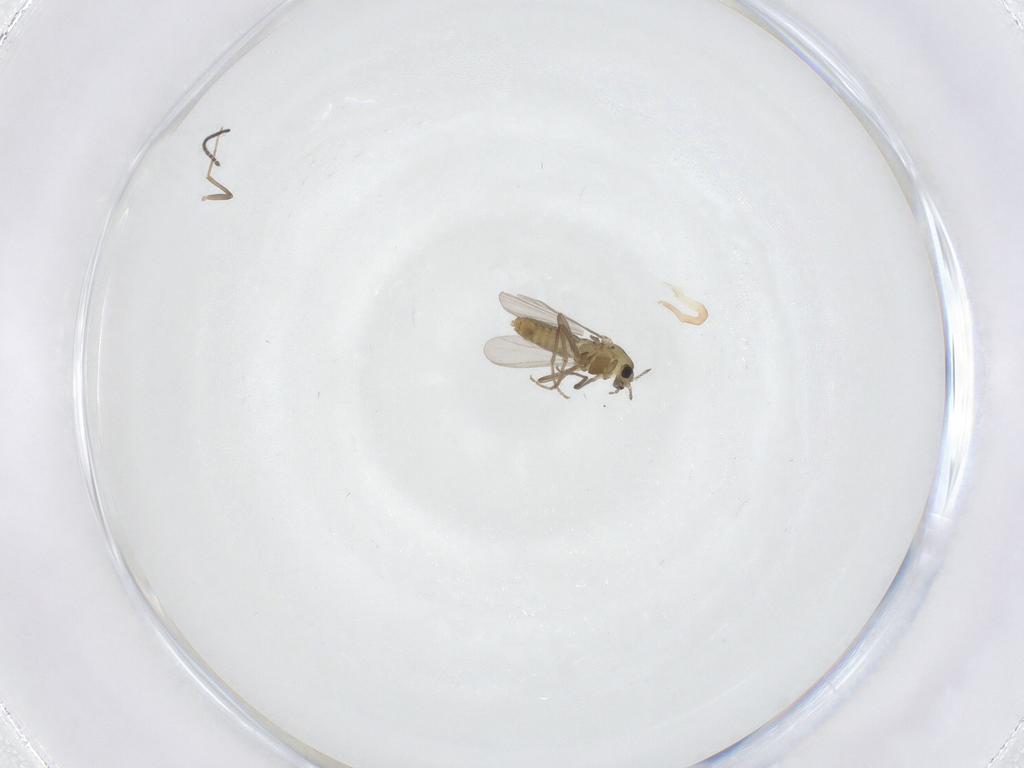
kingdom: Animalia
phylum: Arthropoda
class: Insecta
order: Diptera
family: Chironomidae
